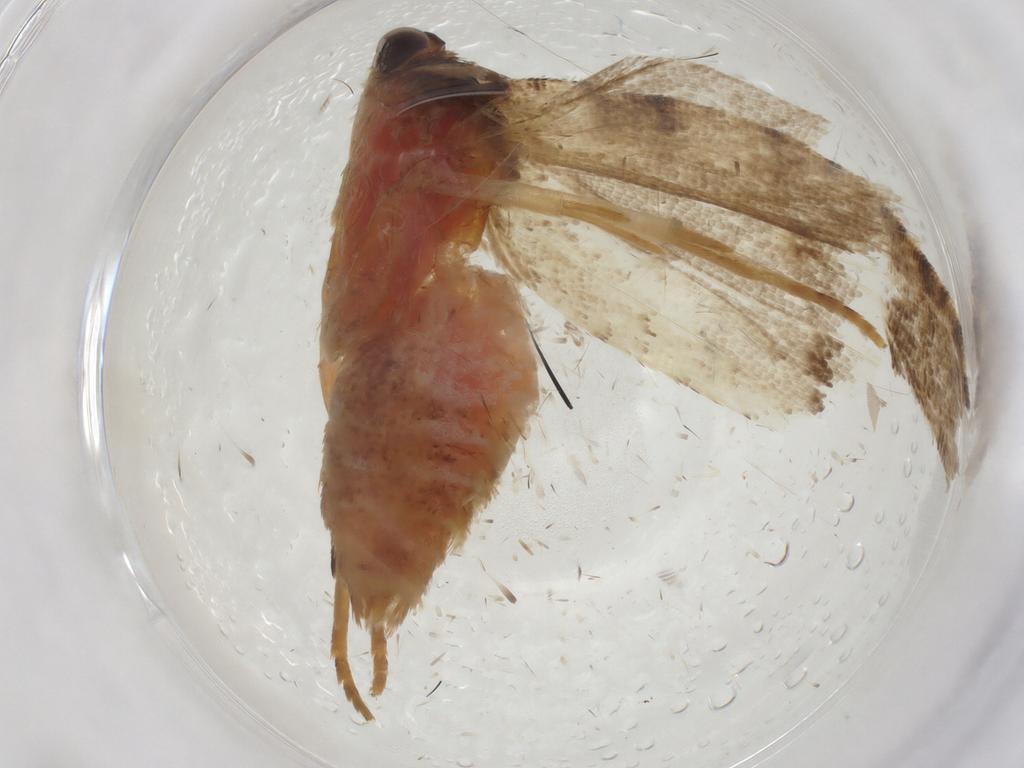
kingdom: Animalia
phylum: Arthropoda
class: Insecta
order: Lepidoptera
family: Tortricidae
